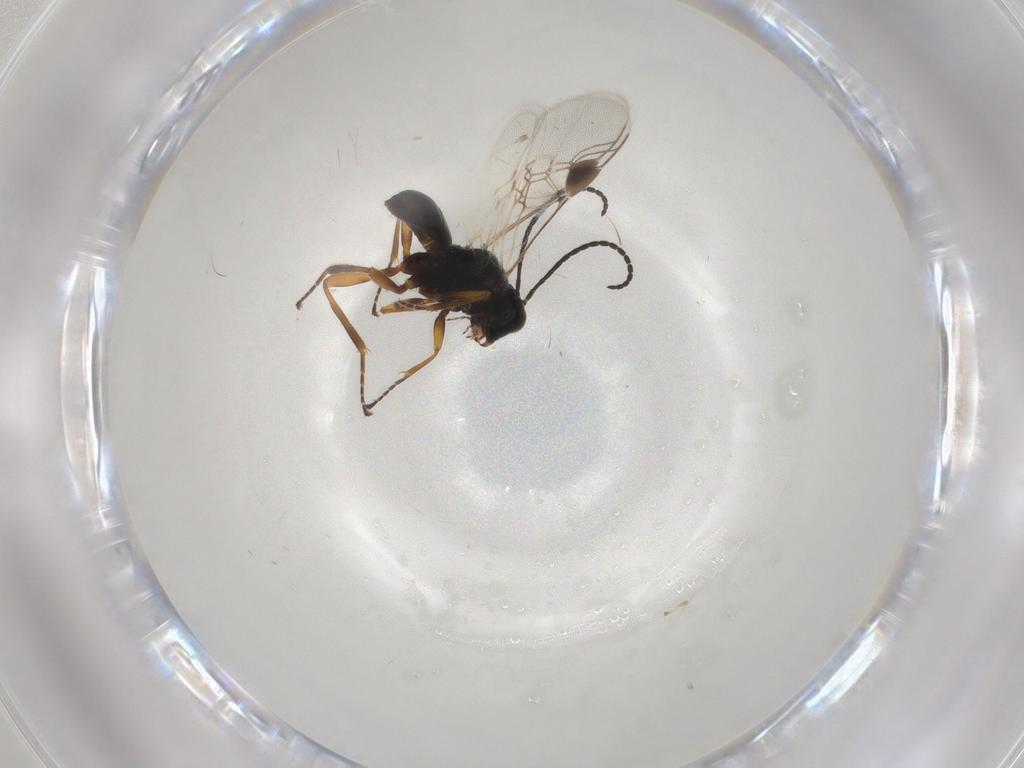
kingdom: Animalia
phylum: Arthropoda
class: Insecta
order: Hymenoptera
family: Braconidae
